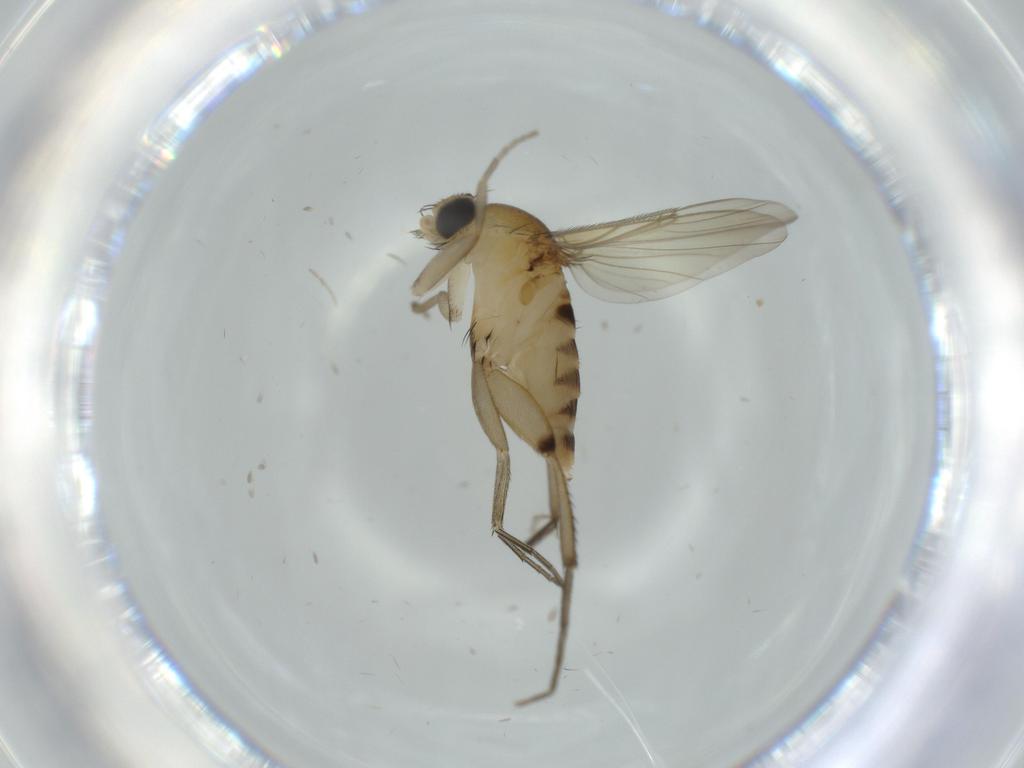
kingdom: Animalia
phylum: Arthropoda
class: Insecta
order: Diptera
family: Phoridae
